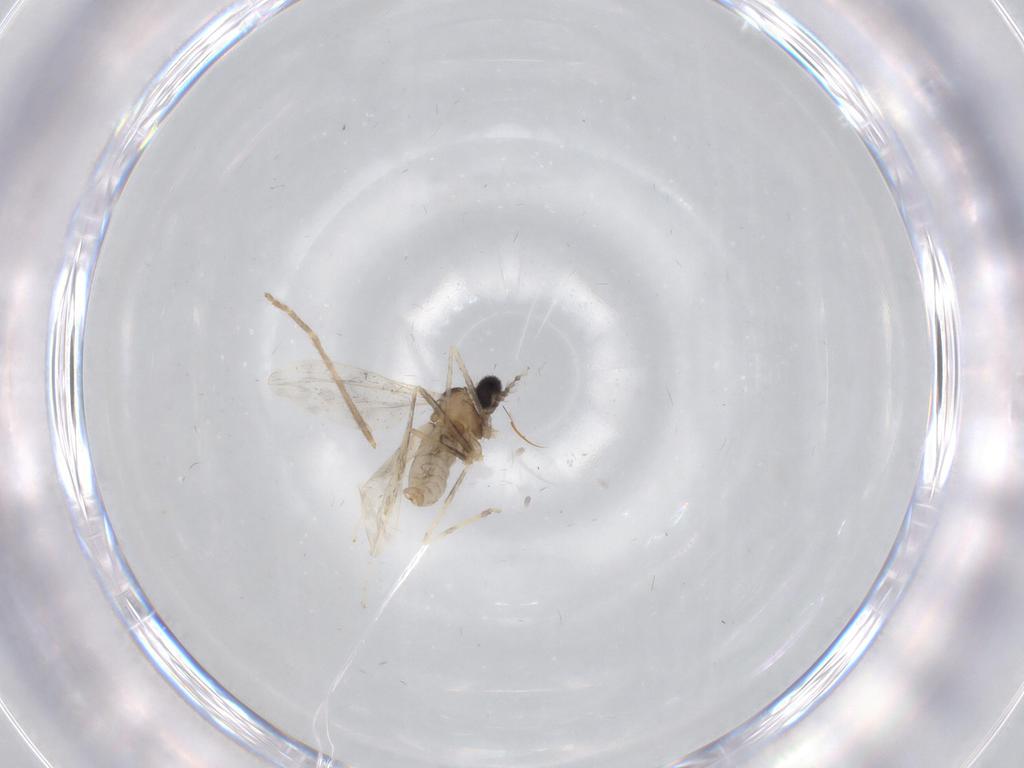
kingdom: Animalia
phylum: Arthropoda
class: Insecta
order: Diptera
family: Cecidomyiidae
